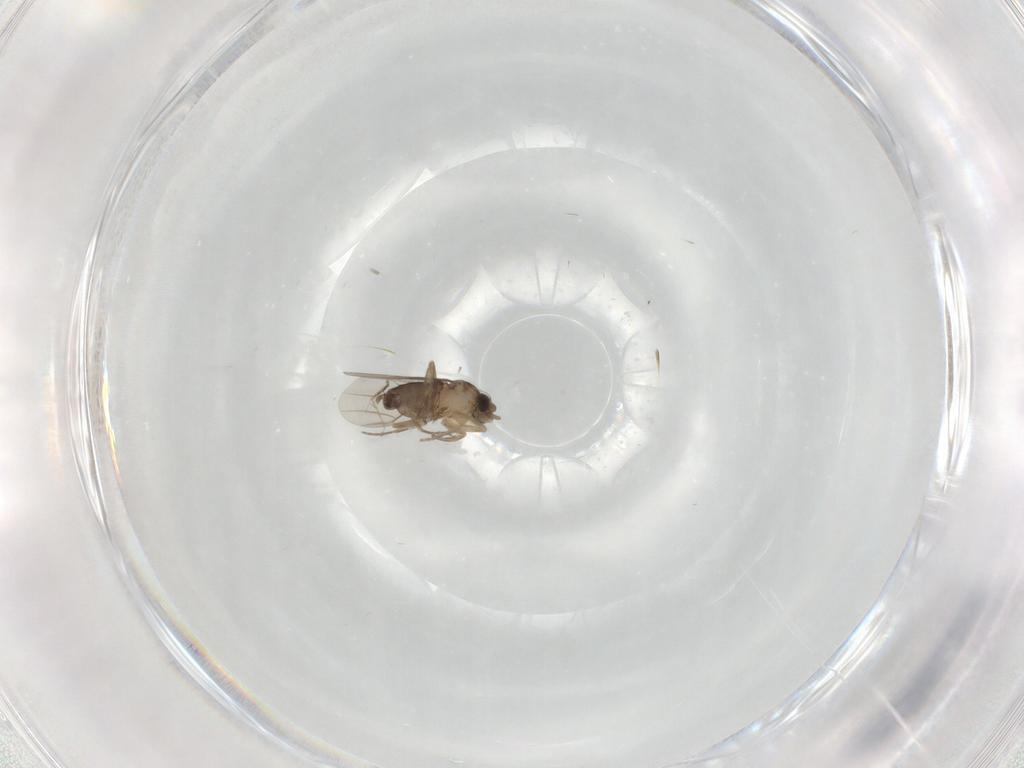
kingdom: Animalia
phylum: Arthropoda
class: Insecta
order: Diptera
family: Phoridae
